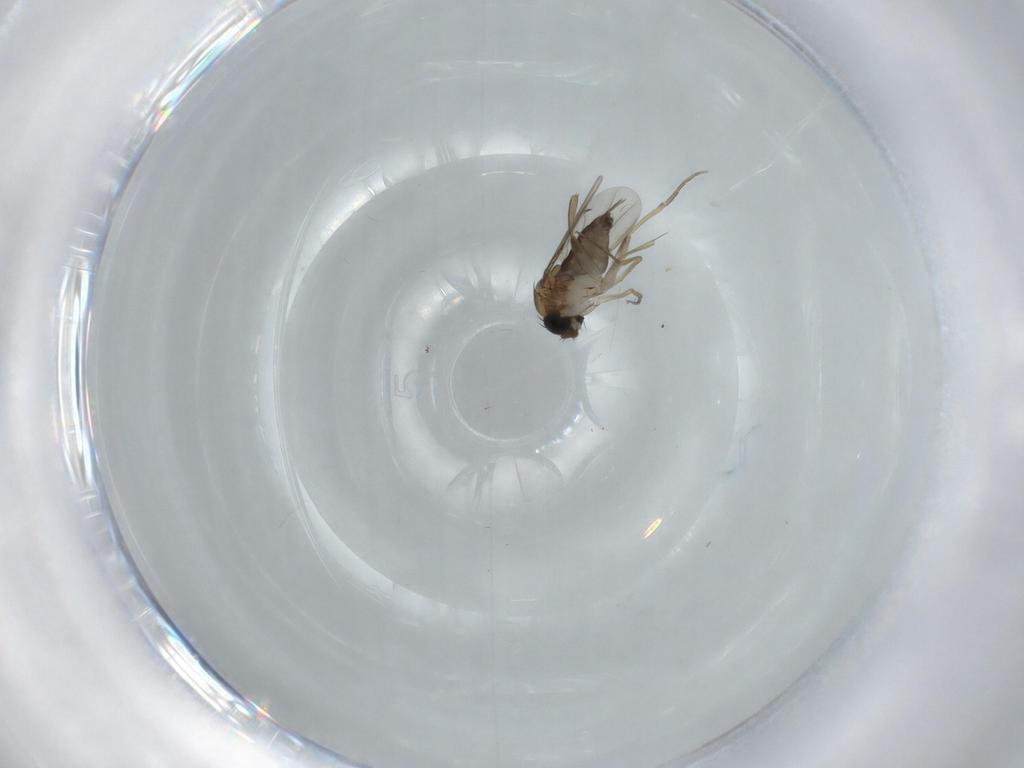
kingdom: Animalia
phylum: Arthropoda
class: Insecta
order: Diptera
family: Phoridae
